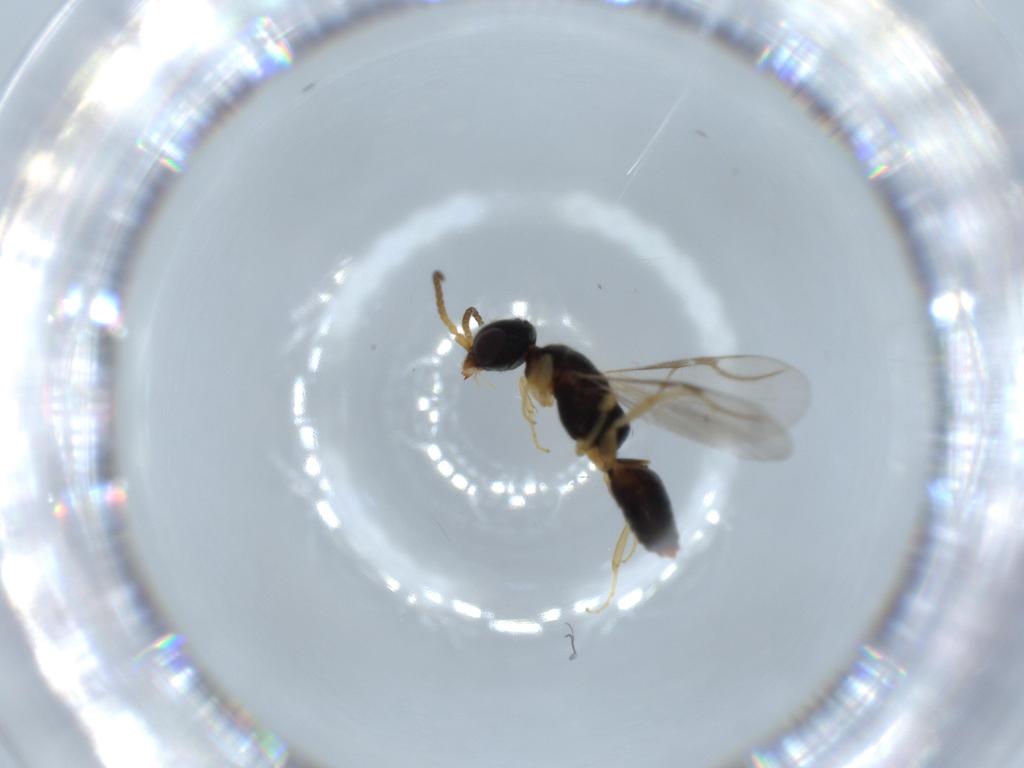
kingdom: Animalia
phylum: Arthropoda
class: Insecta
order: Hymenoptera
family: Bethylidae
